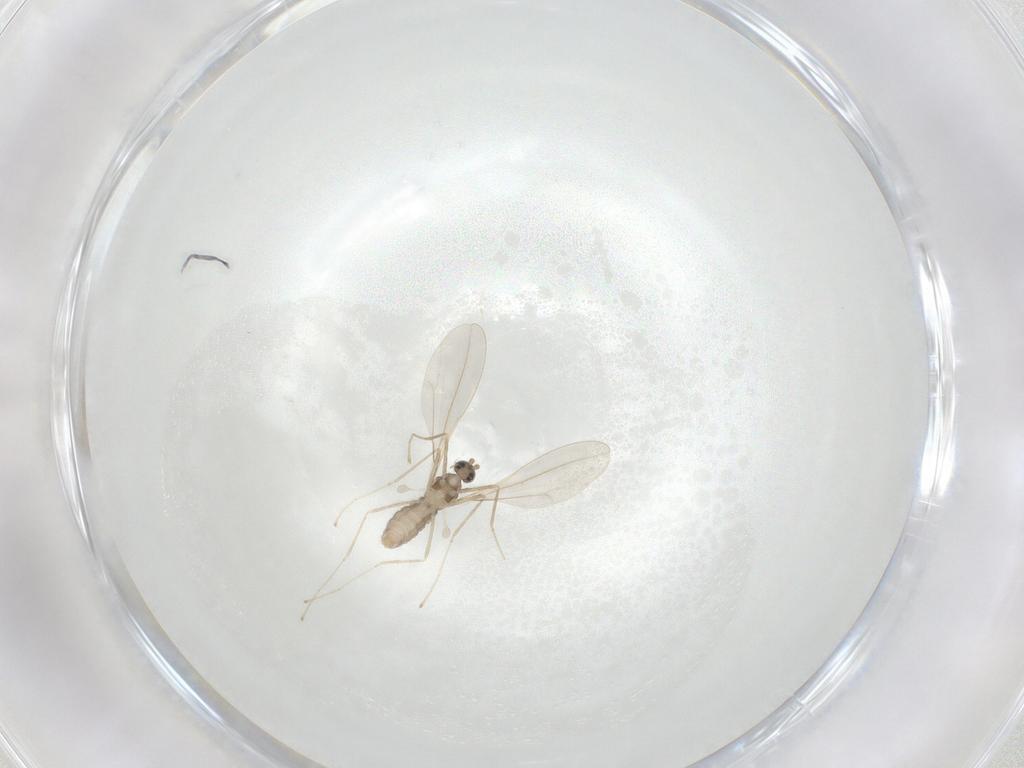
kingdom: Animalia
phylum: Arthropoda
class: Insecta
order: Diptera
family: Cecidomyiidae
